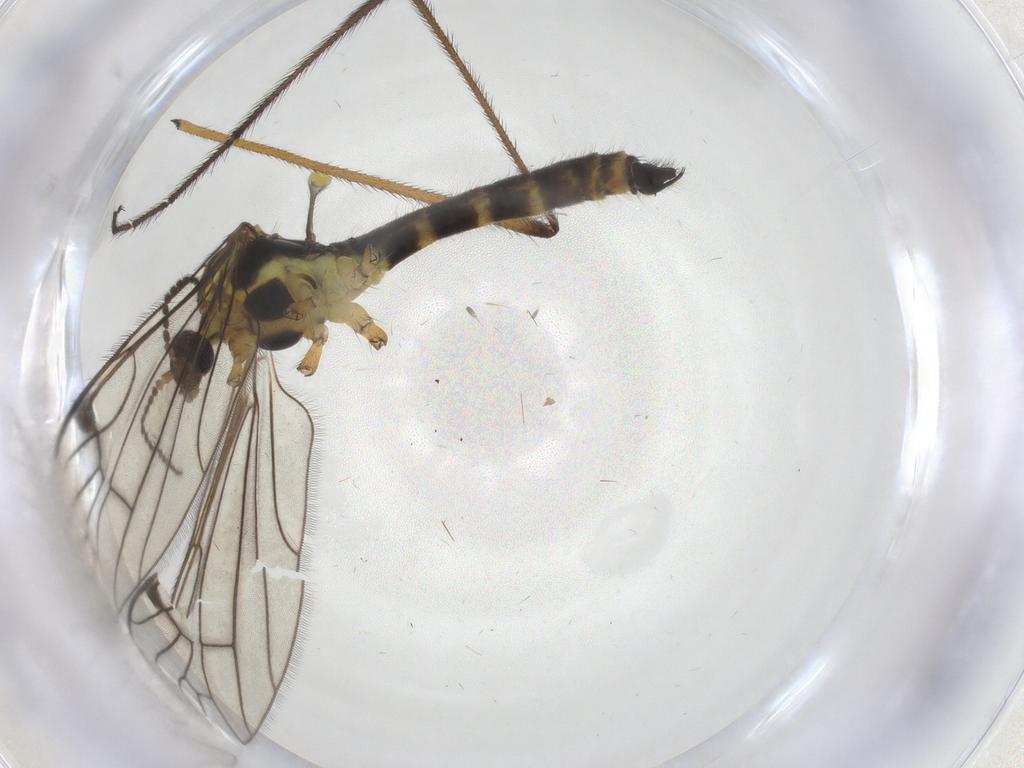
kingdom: Animalia
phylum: Arthropoda
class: Insecta
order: Diptera
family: Limoniidae
